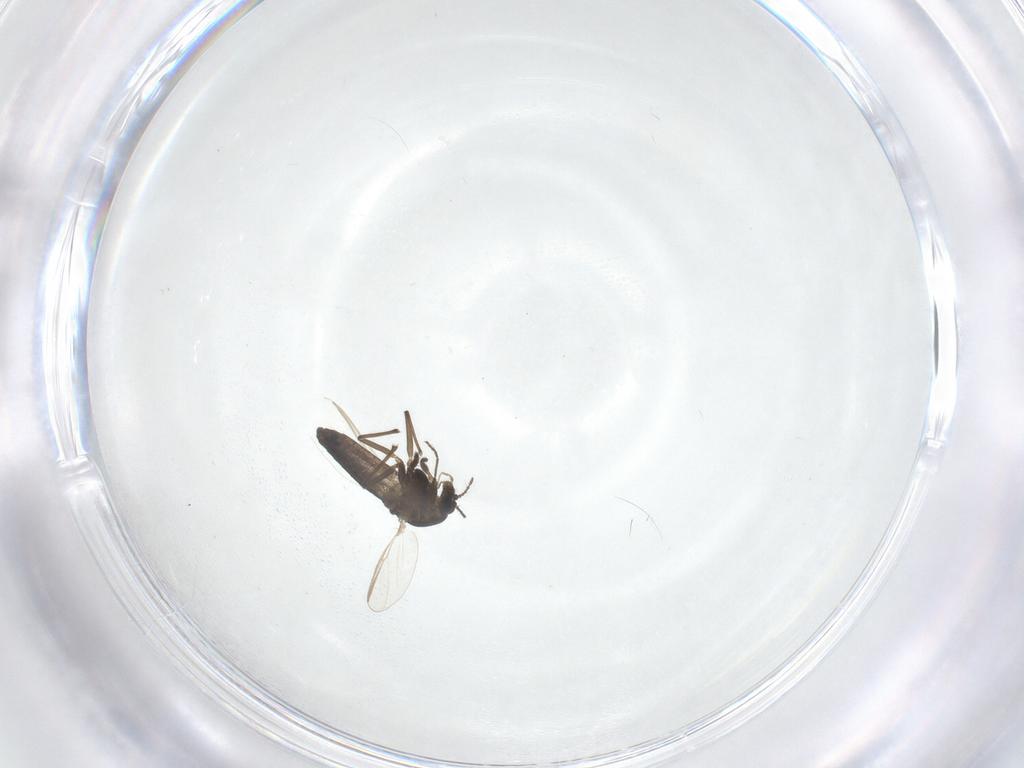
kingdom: Animalia
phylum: Arthropoda
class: Insecta
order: Diptera
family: Chironomidae
